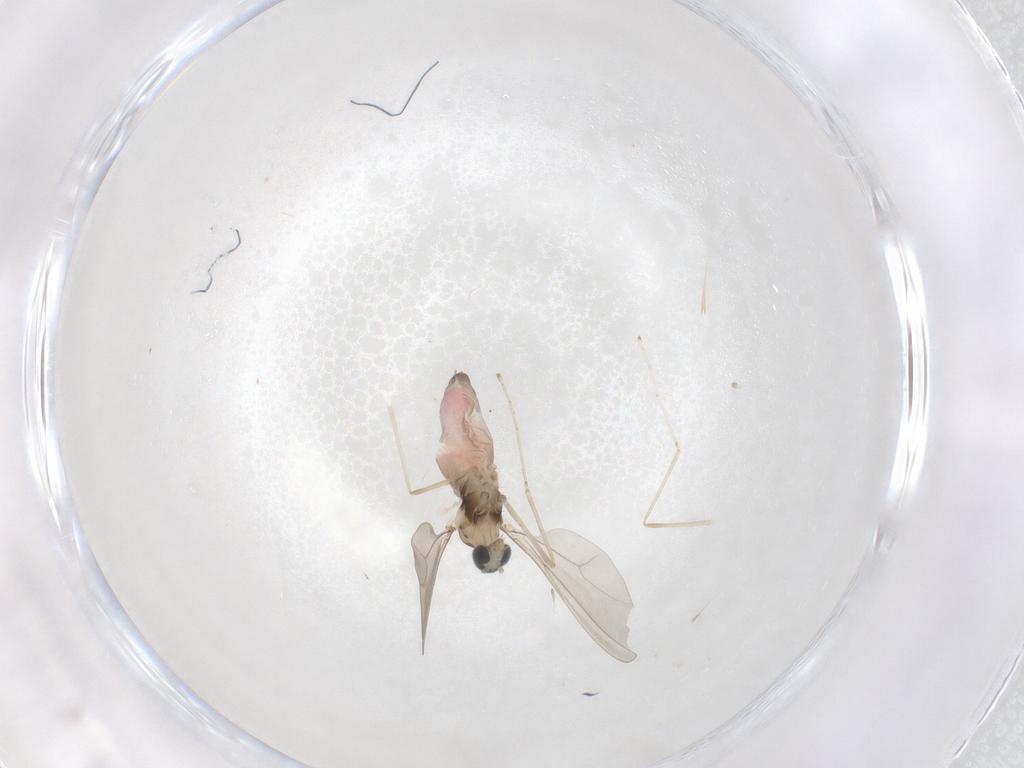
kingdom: Animalia
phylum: Arthropoda
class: Insecta
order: Diptera
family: Cecidomyiidae
